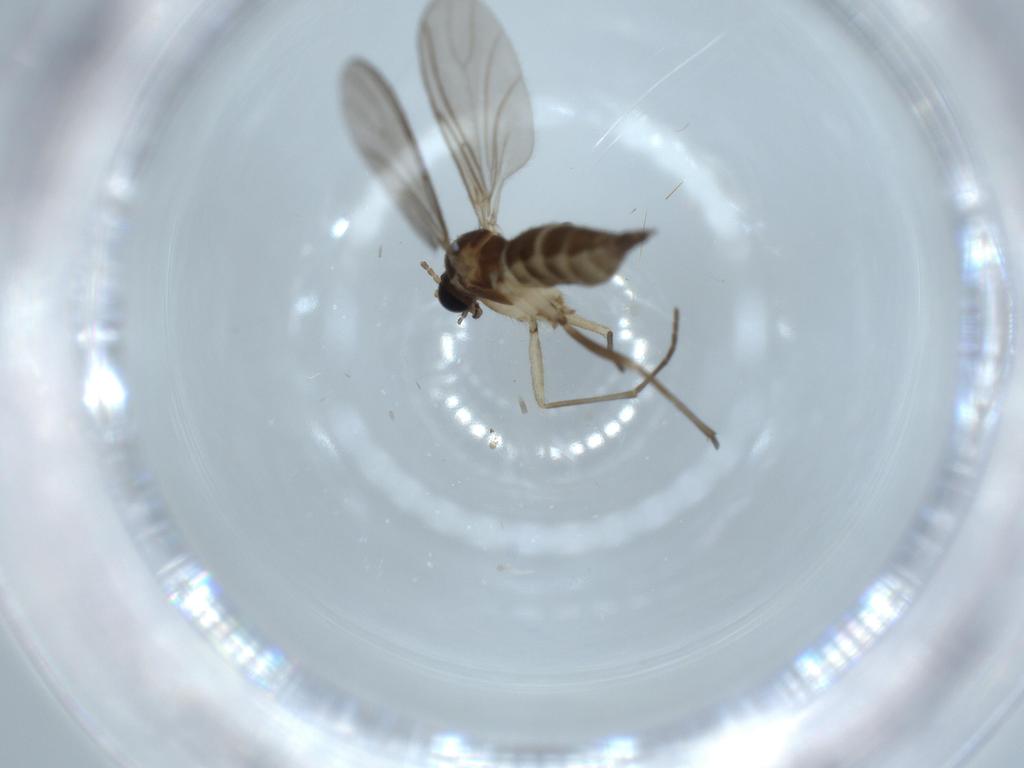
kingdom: Animalia
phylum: Arthropoda
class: Insecta
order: Diptera
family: Sciaridae
